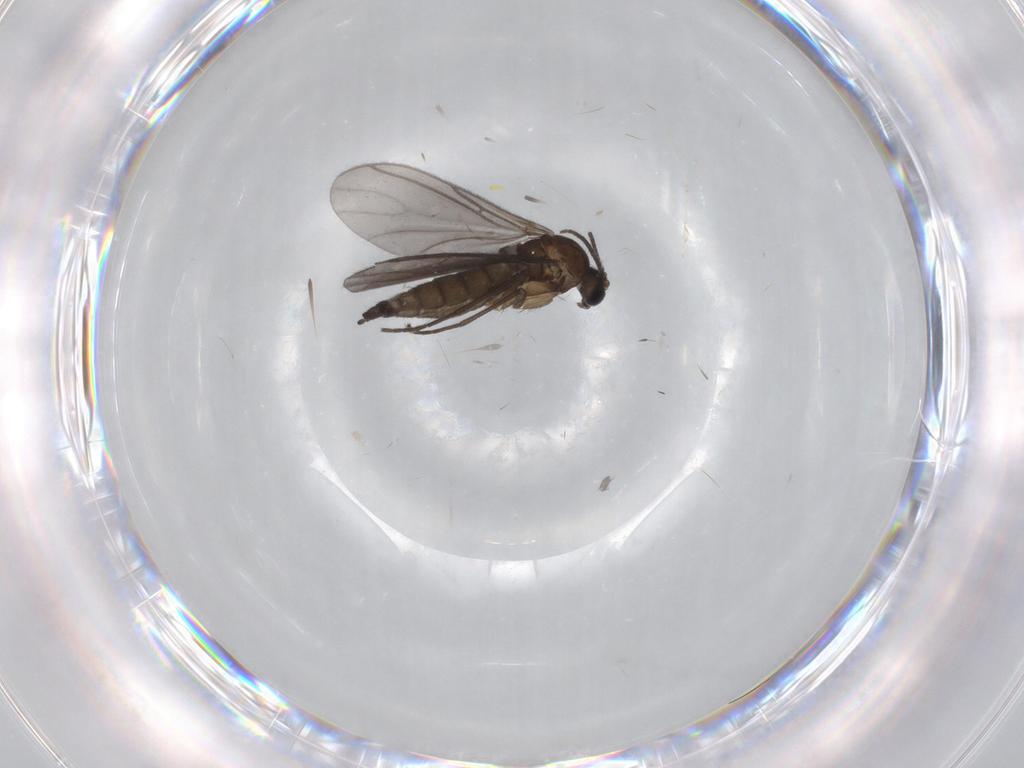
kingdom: Animalia
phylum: Arthropoda
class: Insecta
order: Diptera
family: Sciaridae
